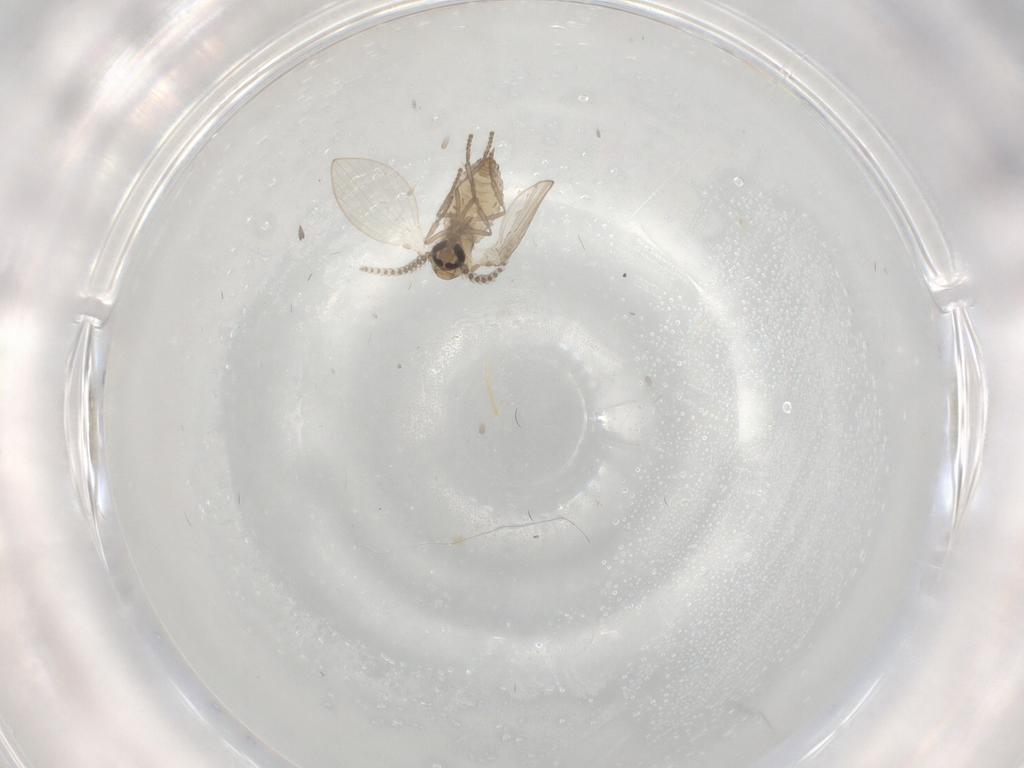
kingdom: Animalia
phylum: Arthropoda
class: Insecta
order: Diptera
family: Psychodidae
